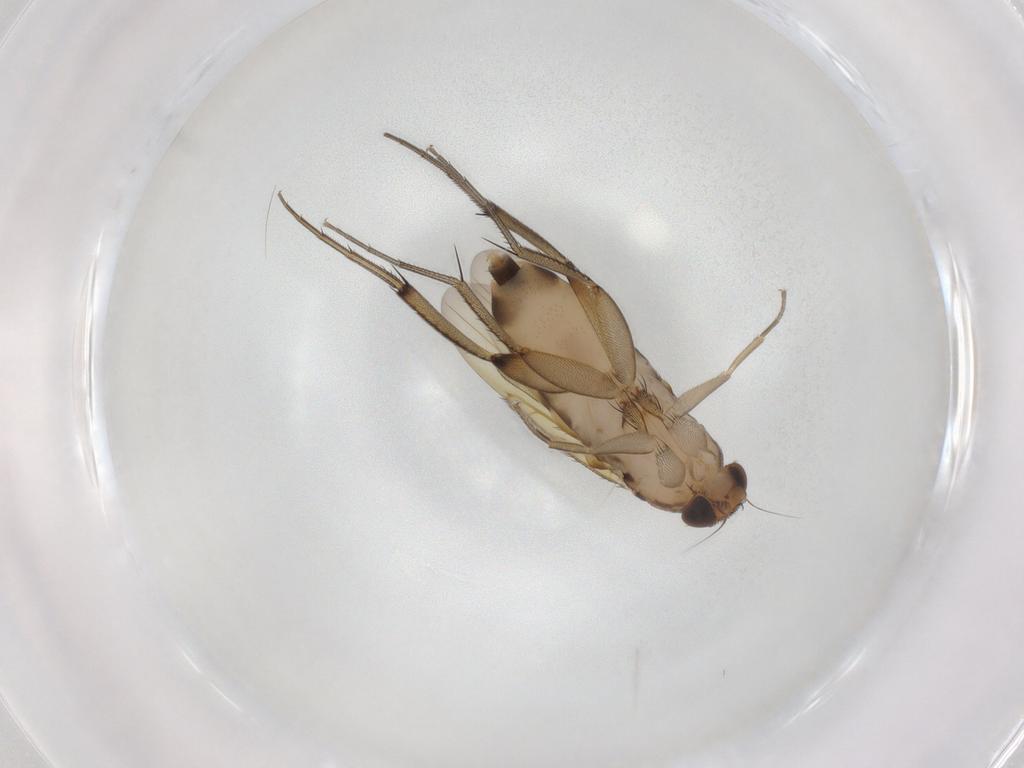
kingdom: Animalia
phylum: Arthropoda
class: Insecta
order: Diptera
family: Phoridae
